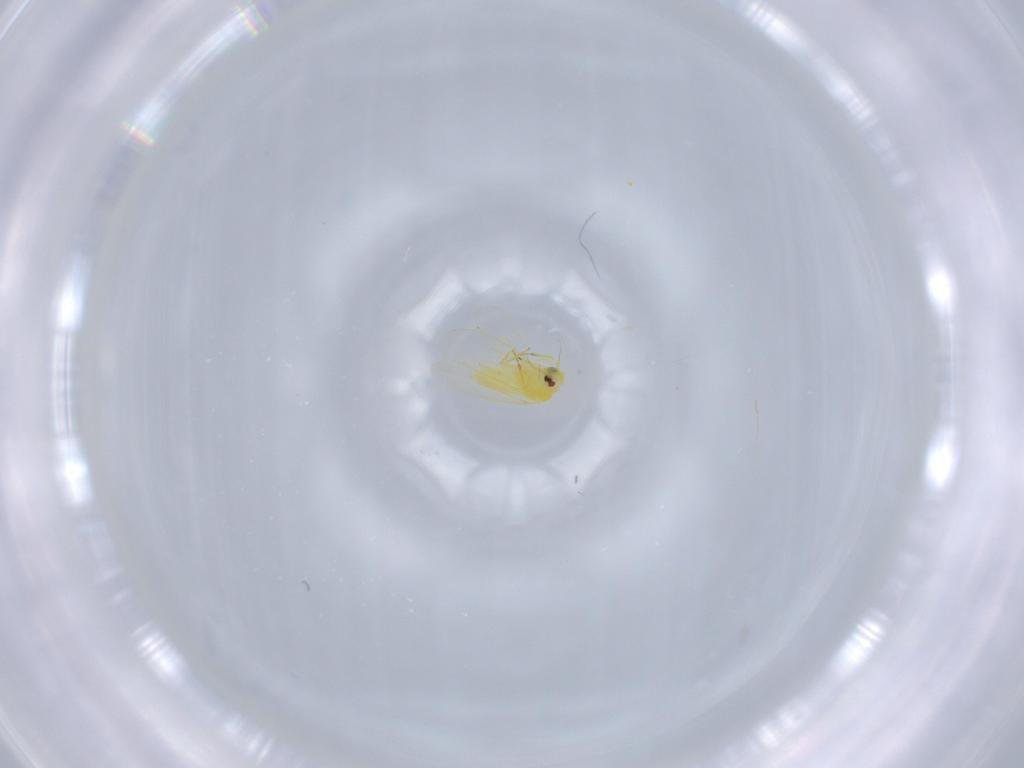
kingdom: Animalia
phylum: Arthropoda
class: Insecta
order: Hemiptera
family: Aleyrodidae
